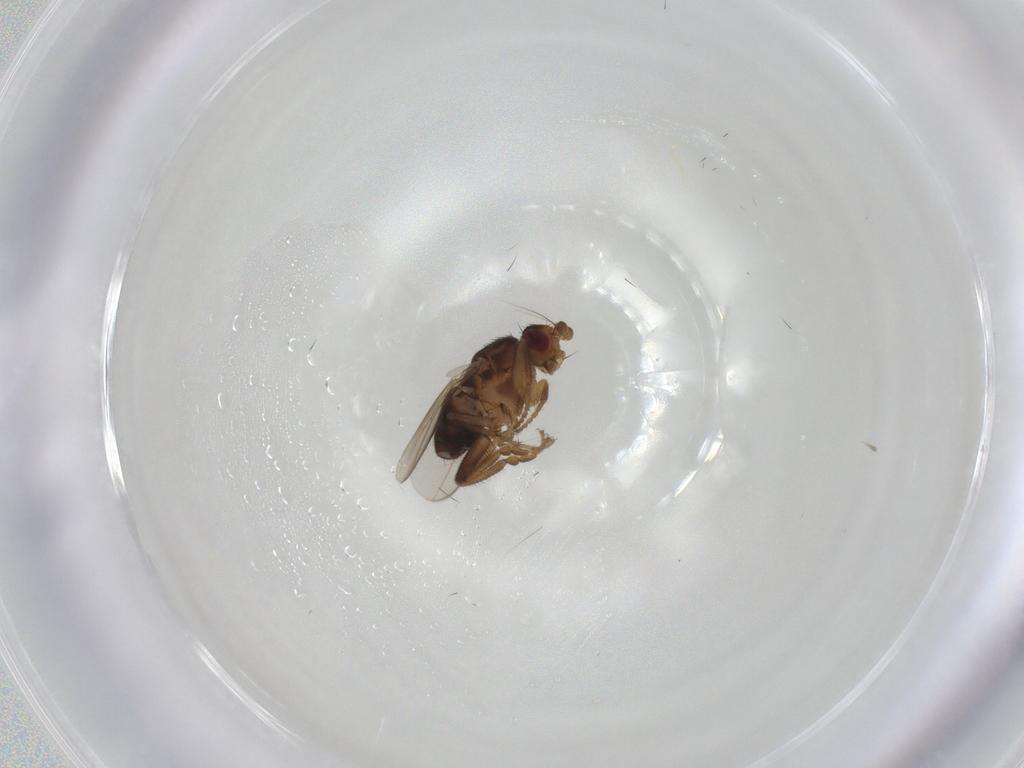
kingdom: Animalia
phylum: Arthropoda
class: Insecta
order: Diptera
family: Sphaeroceridae
